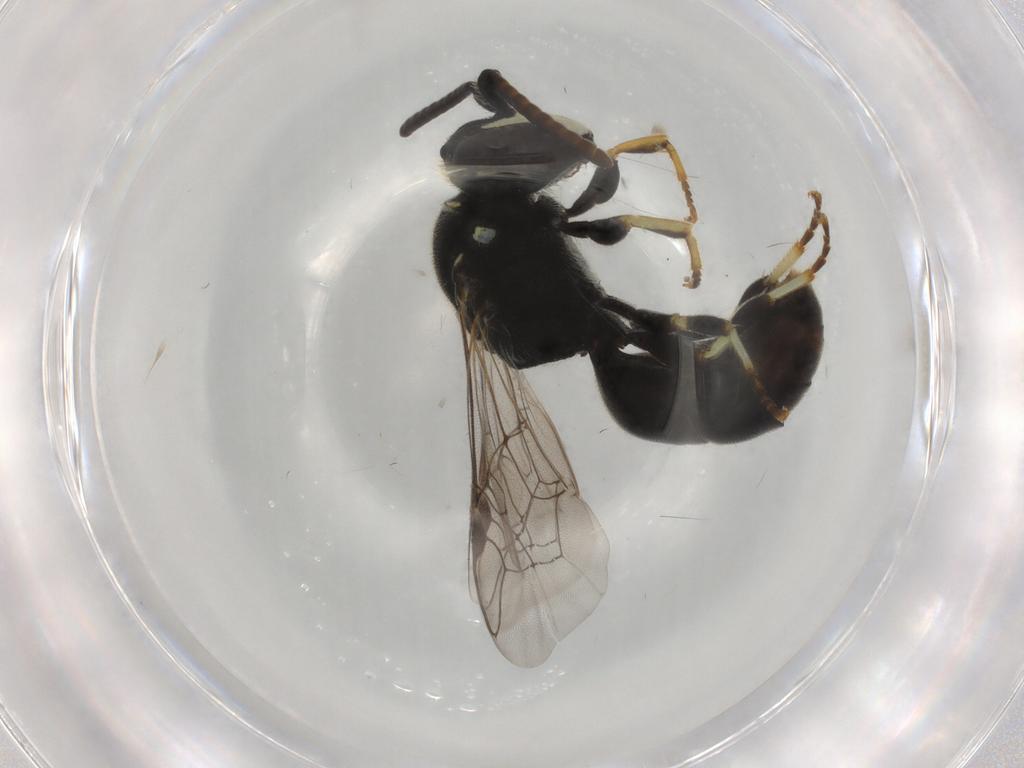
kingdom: Animalia
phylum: Arthropoda
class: Insecta
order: Hymenoptera
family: Colletidae
